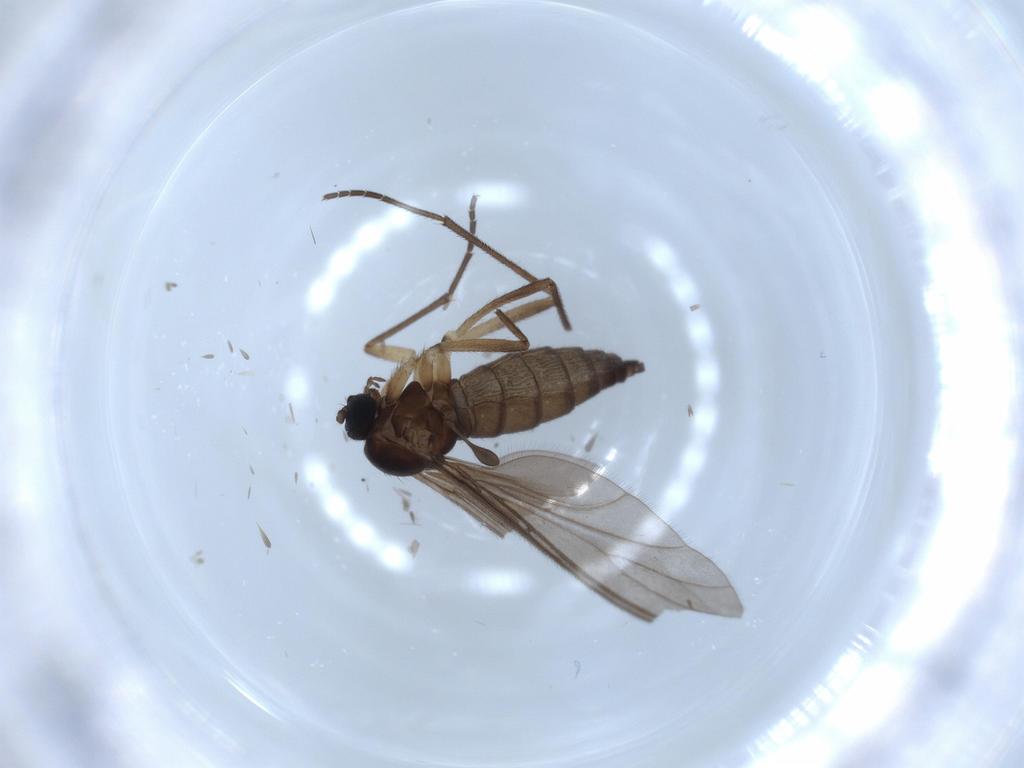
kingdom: Animalia
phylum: Arthropoda
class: Insecta
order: Diptera
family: Sciaridae
